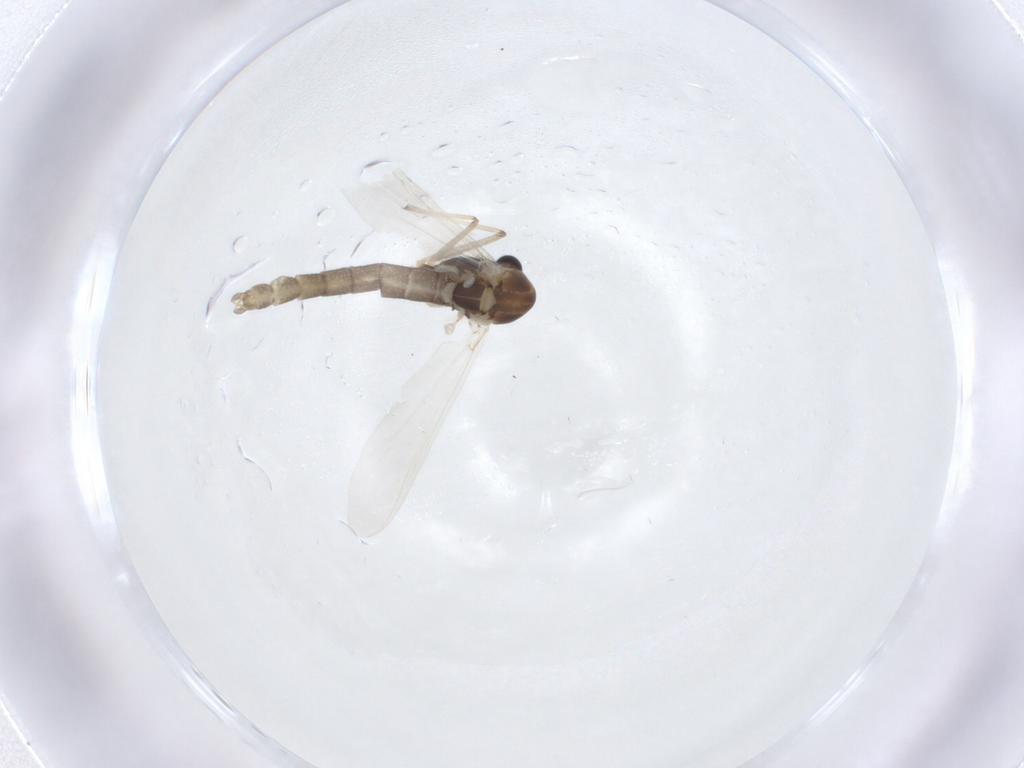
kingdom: Animalia
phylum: Arthropoda
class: Insecta
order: Diptera
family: Chironomidae
